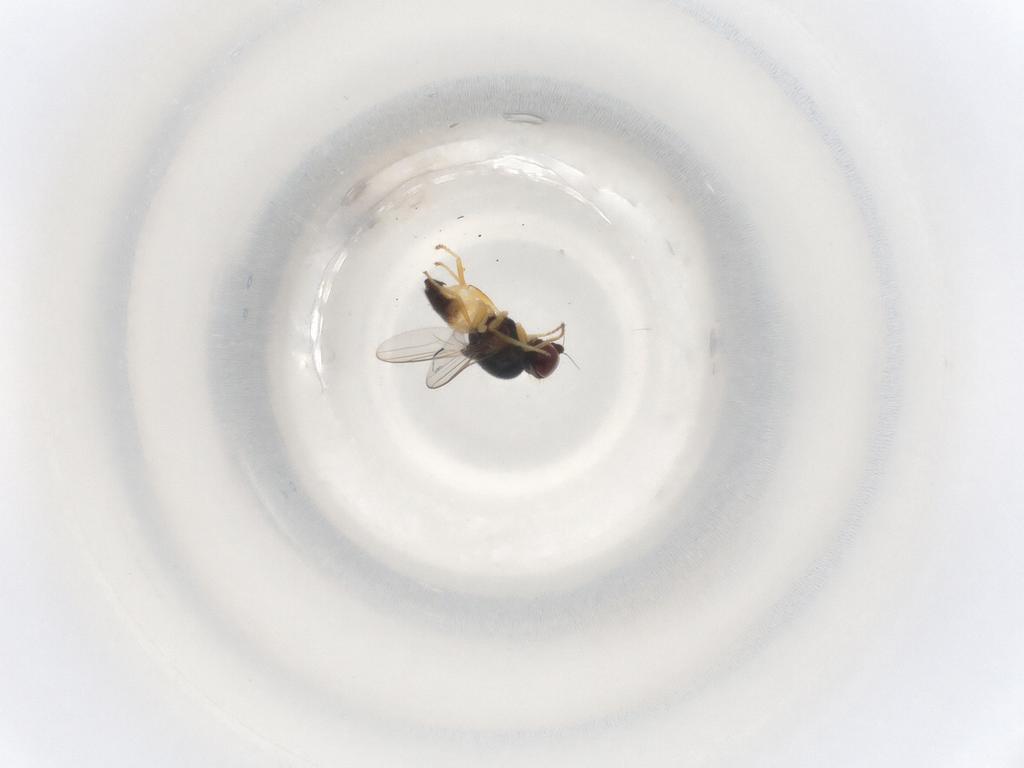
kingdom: Animalia
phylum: Arthropoda
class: Insecta
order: Diptera
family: Chloropidae
